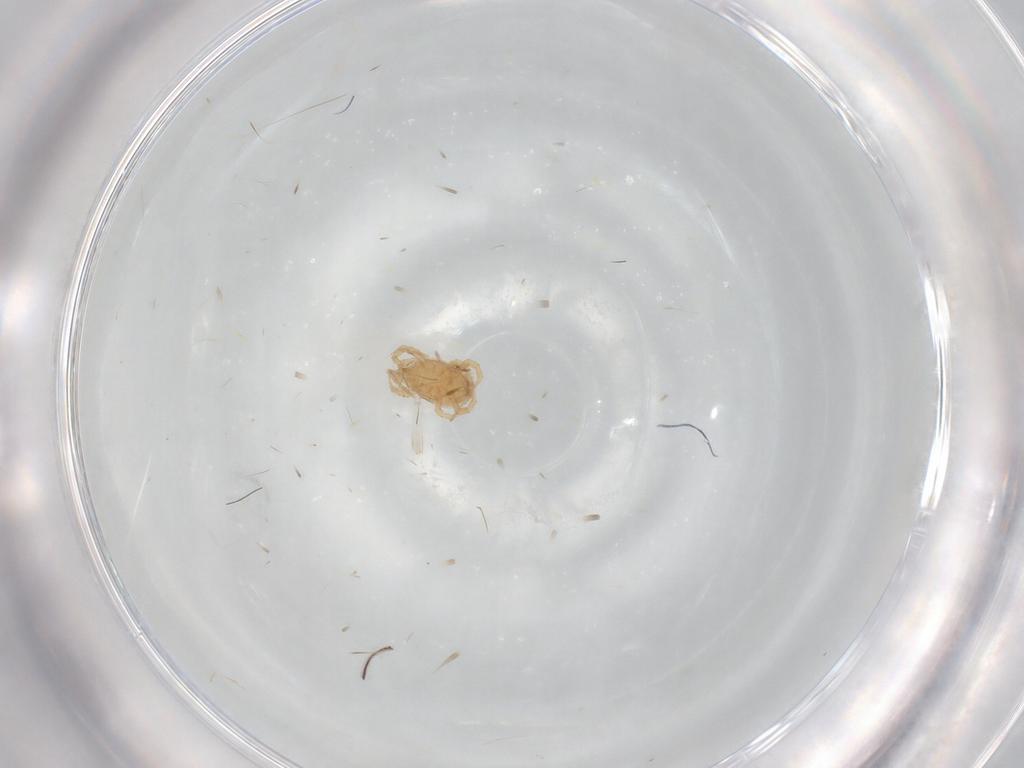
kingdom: Animalia
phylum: Arthropoda
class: Arachnida
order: Mesostigmata
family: Blattisociidae
